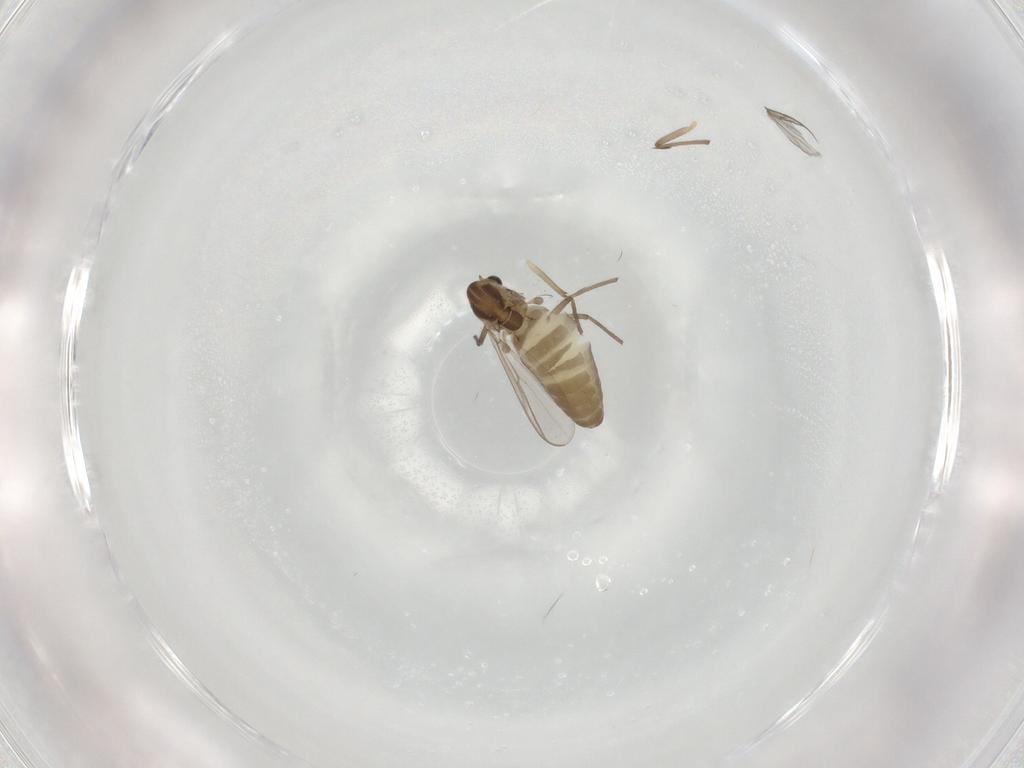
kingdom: Animalia
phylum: Arthropoda
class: Insecta
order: Diptera
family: Chironomidae
